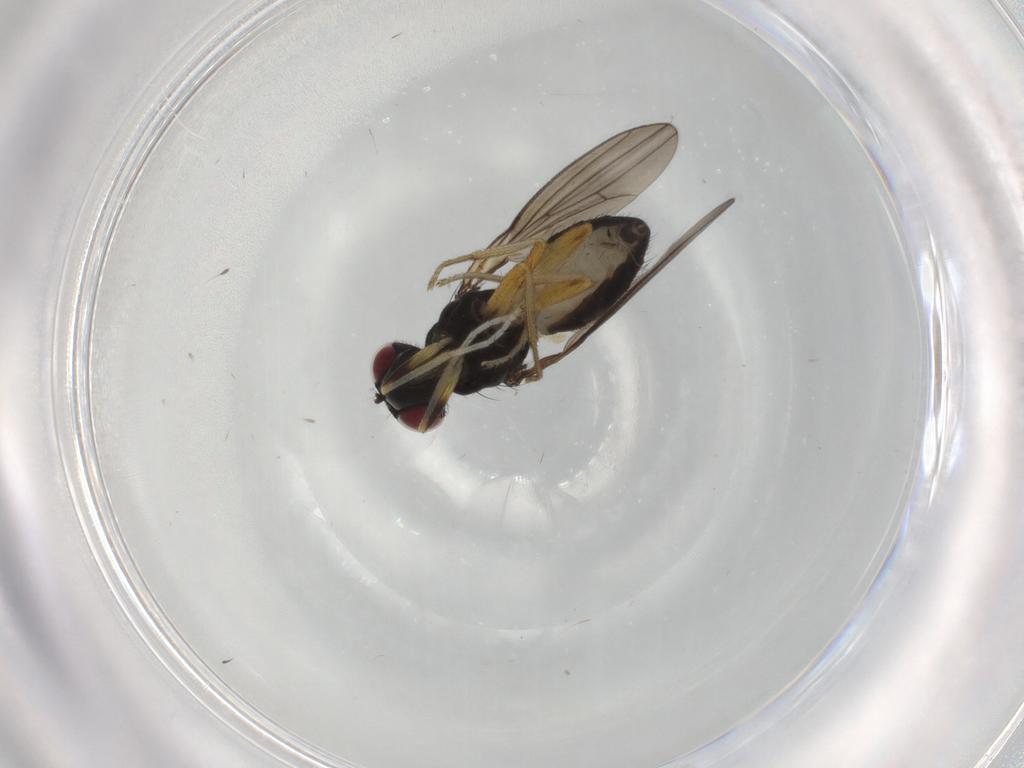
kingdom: Animalia
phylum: Arthropoda
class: Insecta
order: Diptera
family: Lauxaniidae
